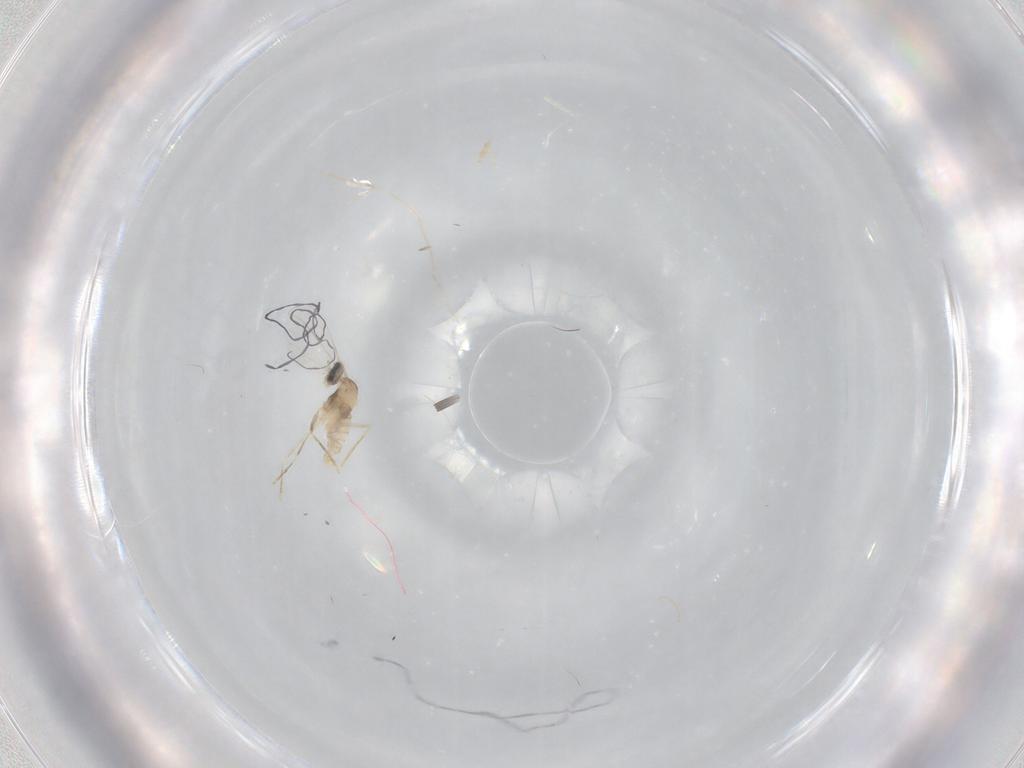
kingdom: Animalia
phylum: Arthropoda
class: Insecta
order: Diptera
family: Cecidomyiidae
